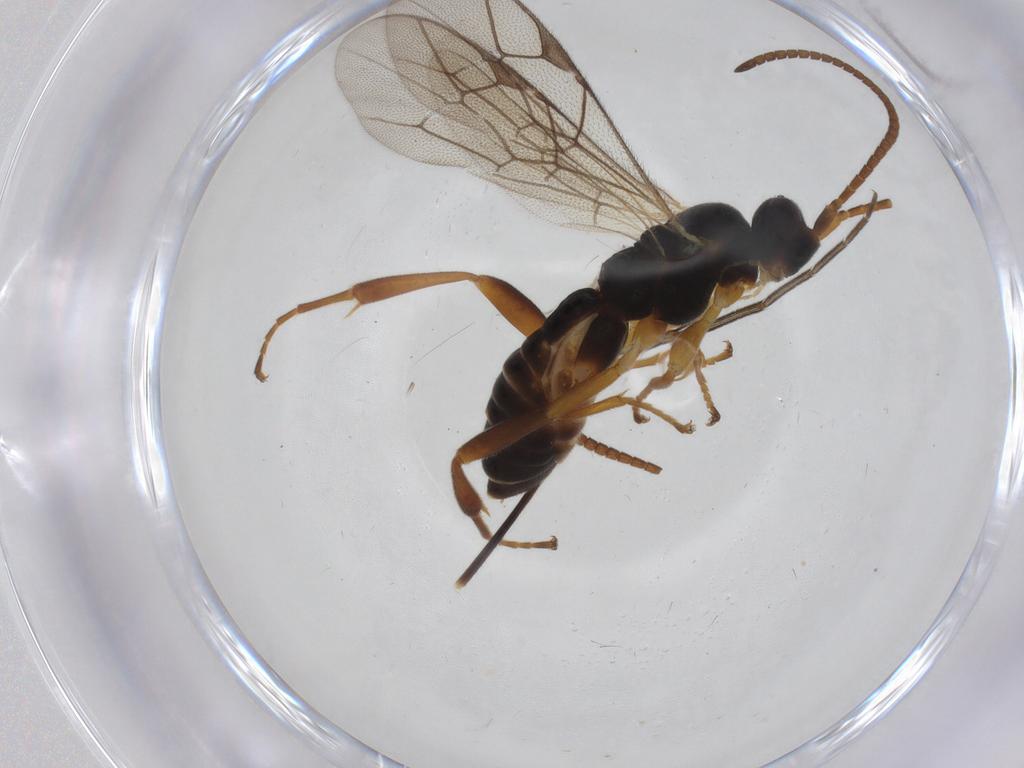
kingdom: Animalia
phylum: Arthropoda
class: Insecta
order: Hymenoptera
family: Ichneumonidae
